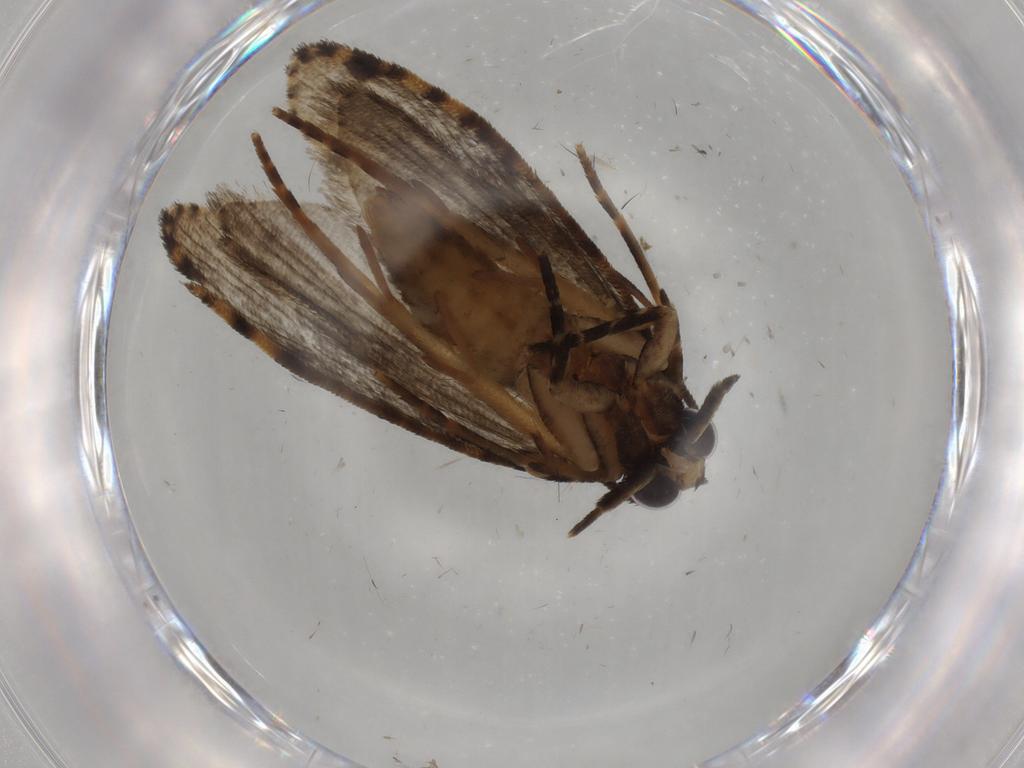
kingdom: Animalia
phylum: Arthropoda
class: Insecta
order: Lepidoptera
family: Tineidae
